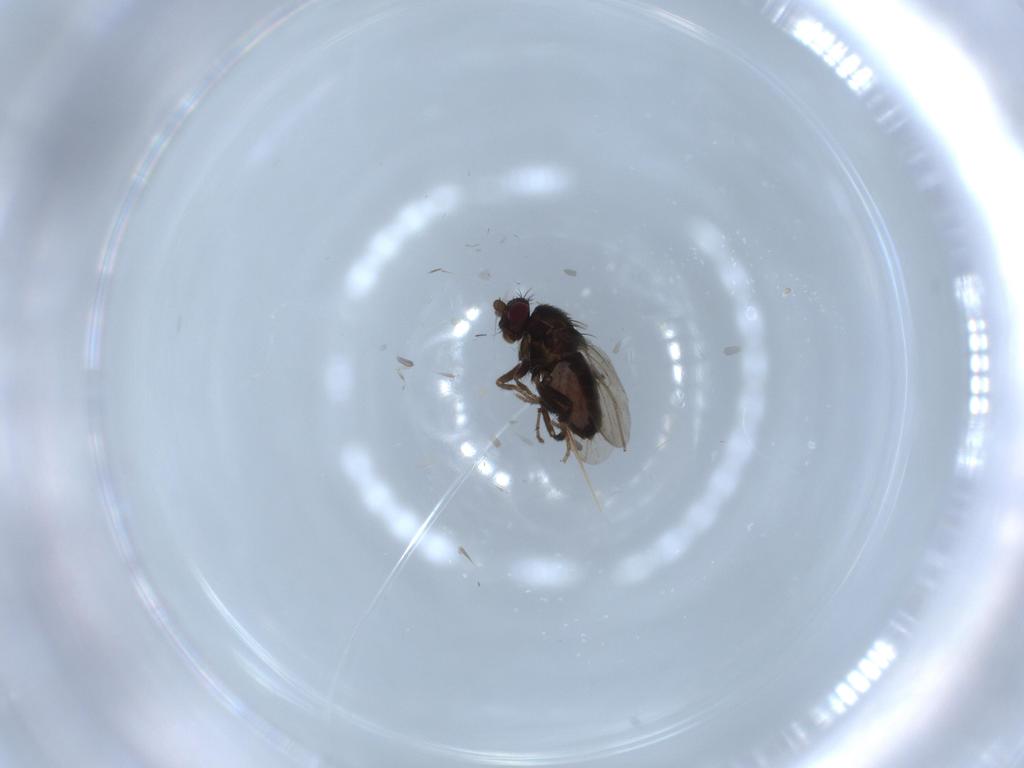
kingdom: Animalia
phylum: Arthropoda
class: Insecta
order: Diptera
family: Sphaeroceridae
